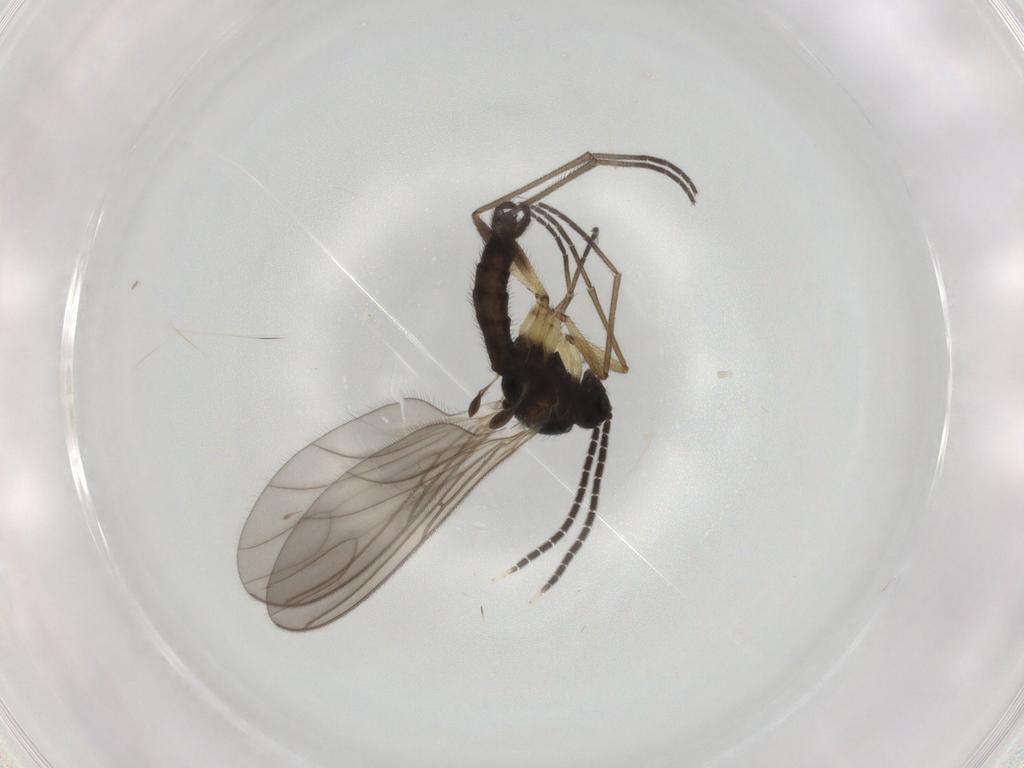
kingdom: Animalia
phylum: Arthropoda
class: Insecta
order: Diptera
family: Sciaridae
